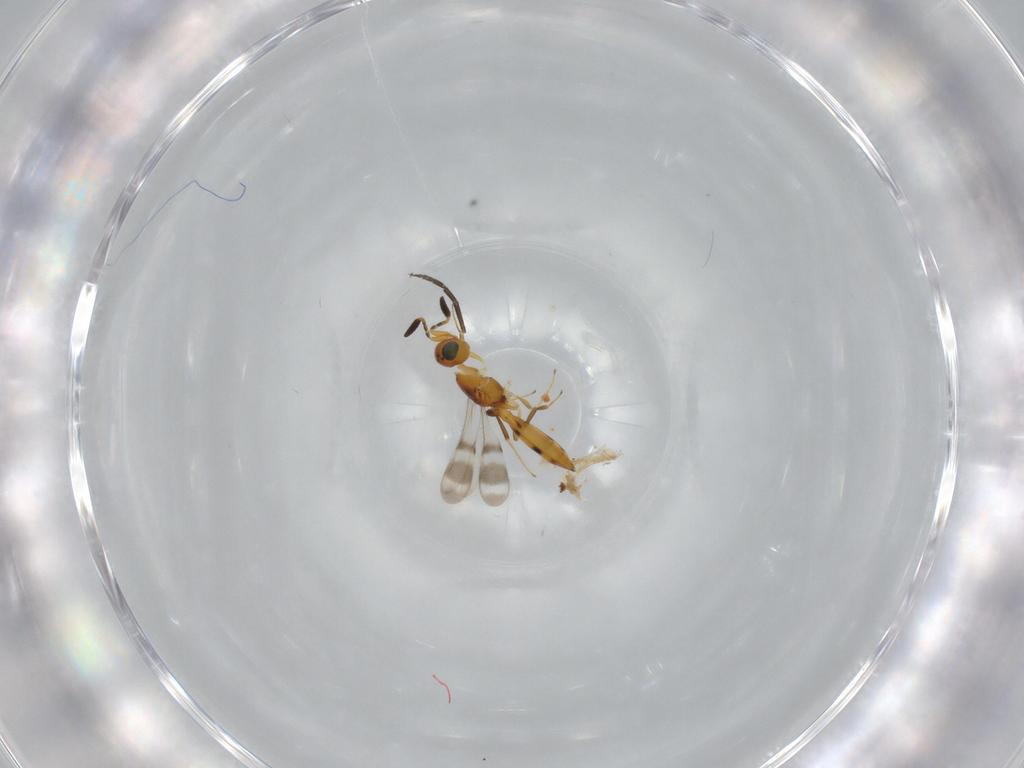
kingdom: Animalia
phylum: Arthropoda
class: Insecta
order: Hymenoptera
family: Scelionidae
